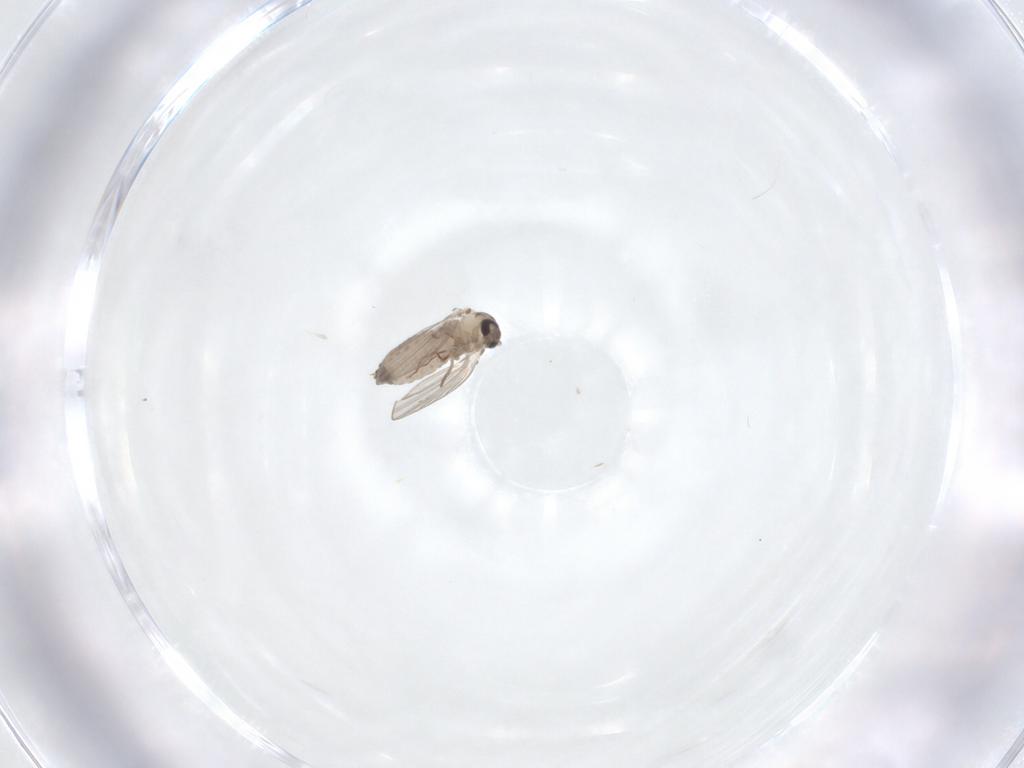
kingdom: Animalia
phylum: Arthropoda
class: Insecta
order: Diptera
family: Psychodidae
